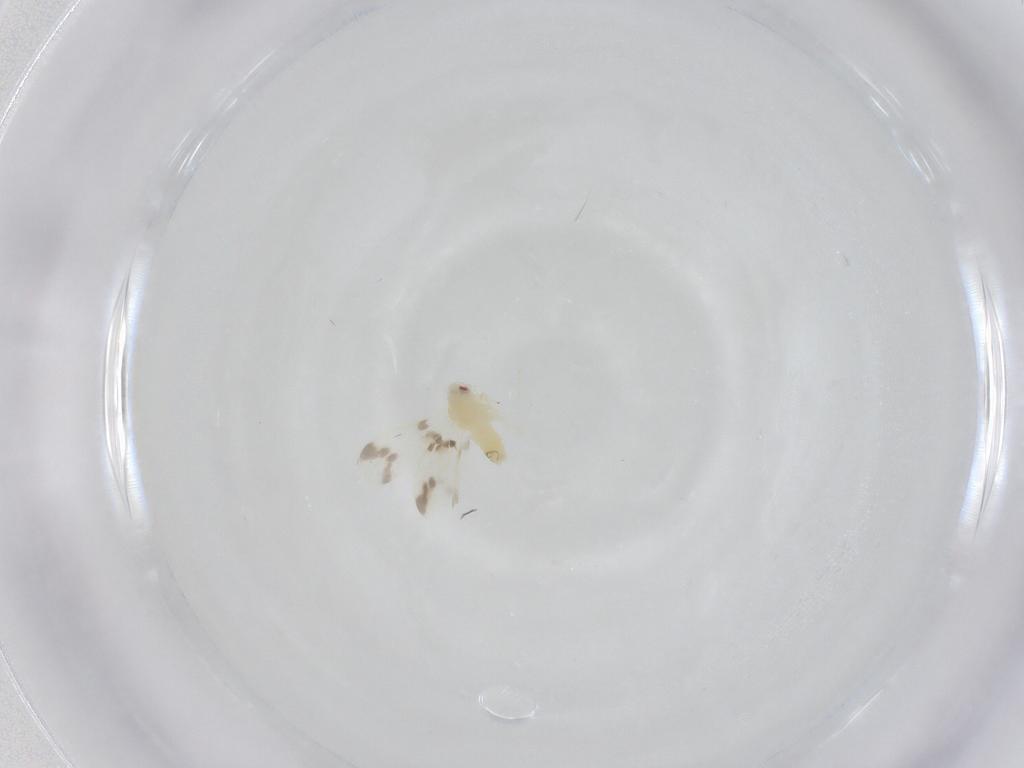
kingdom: Animalia
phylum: Arthropoda
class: Insecta
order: Hemiptera
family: Aleyrodidae
